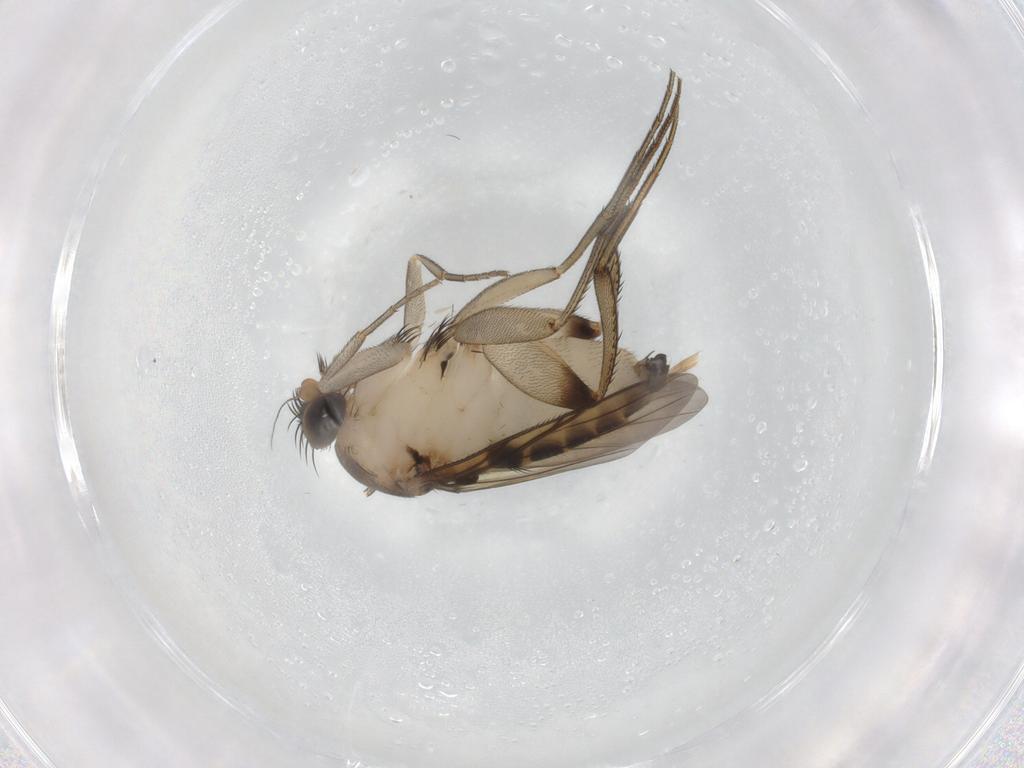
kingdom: Animalia
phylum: Arthropoda
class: Insecta
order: Diptera
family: Phoridae
